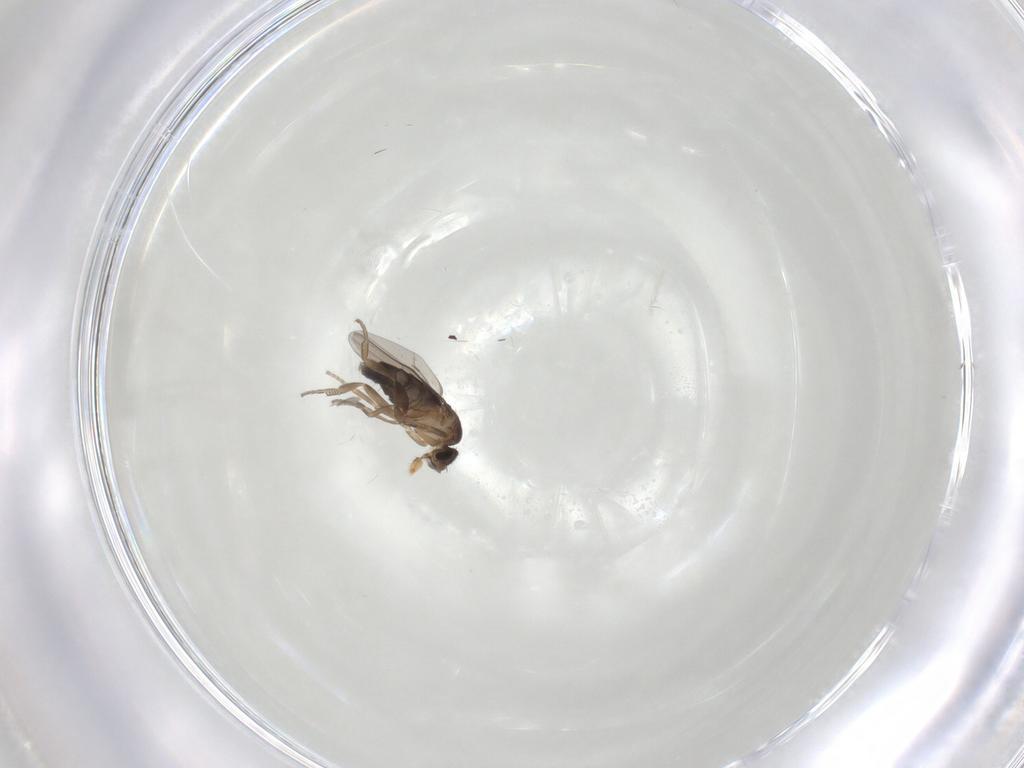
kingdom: Animalia
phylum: Arthropoda
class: Insecta
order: Diptera
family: Phoridae
